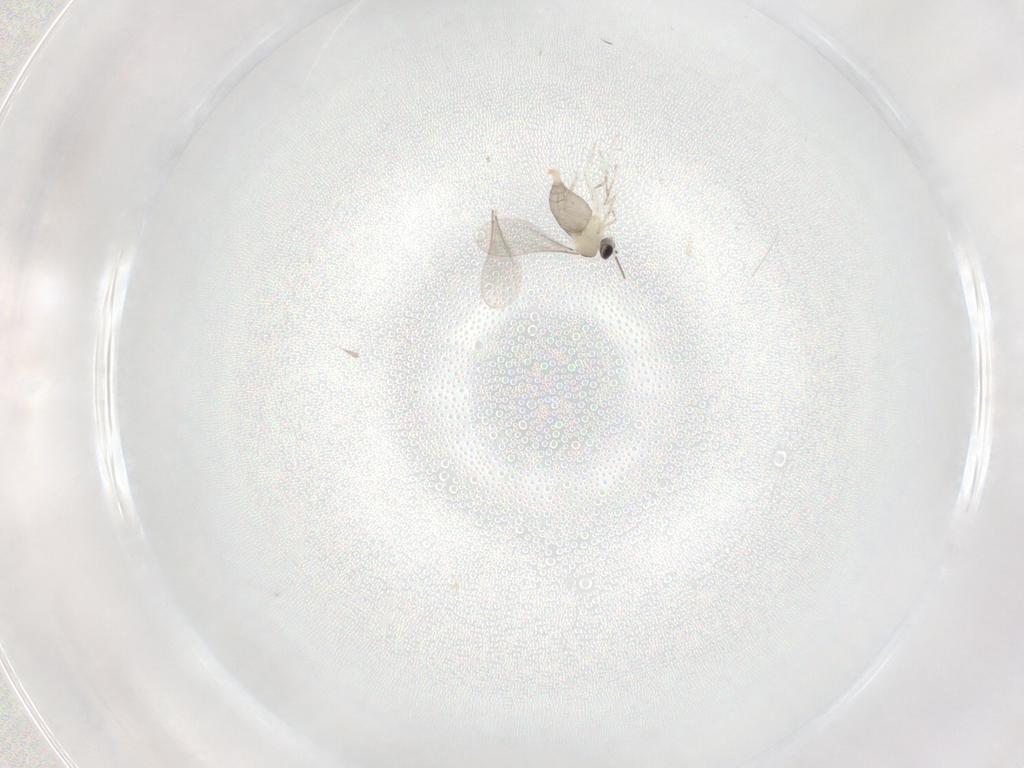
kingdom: Animalia
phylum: Arthropoda
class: Insecta
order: Diptera
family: Cecidomyiidae
